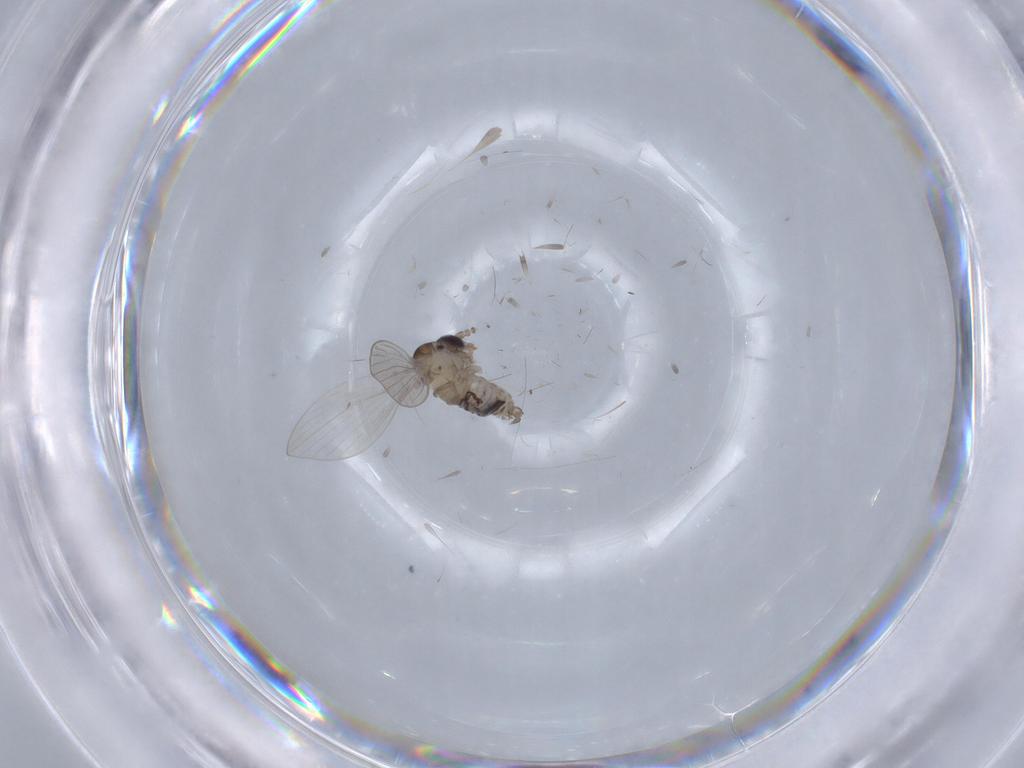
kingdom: Animalia
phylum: Arthropoda
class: Insecta
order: Diptera
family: Psychodidae
